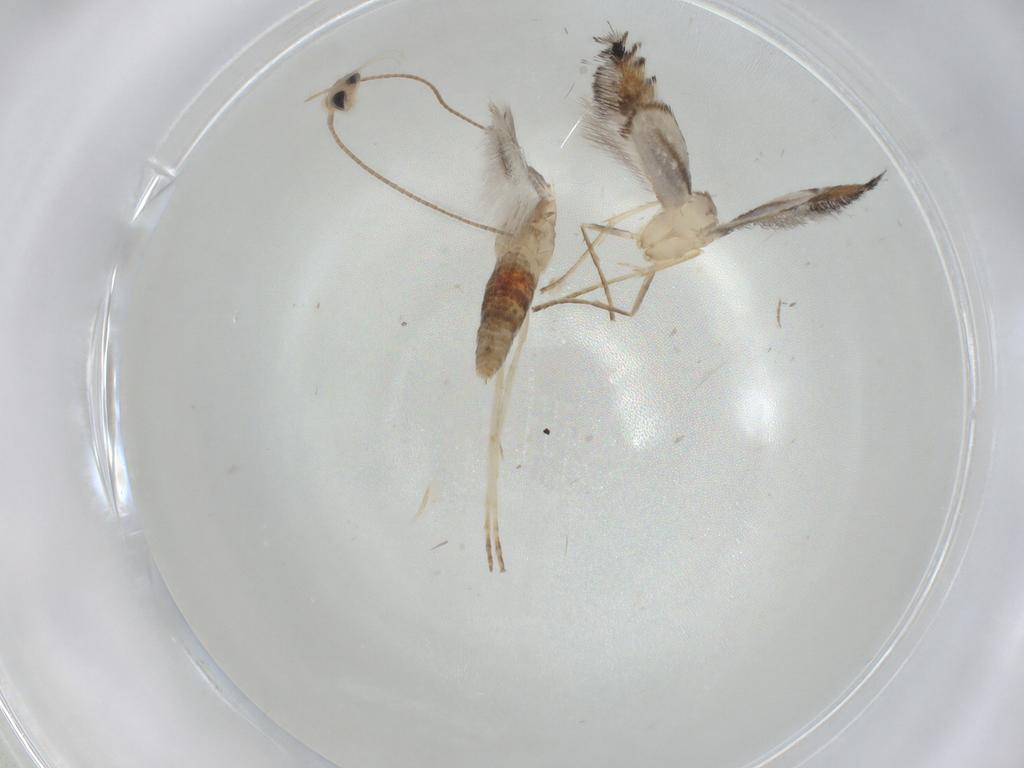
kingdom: Animalia
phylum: Arthropoda
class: Insecta
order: Lepidoptera
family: Gracillariidae
